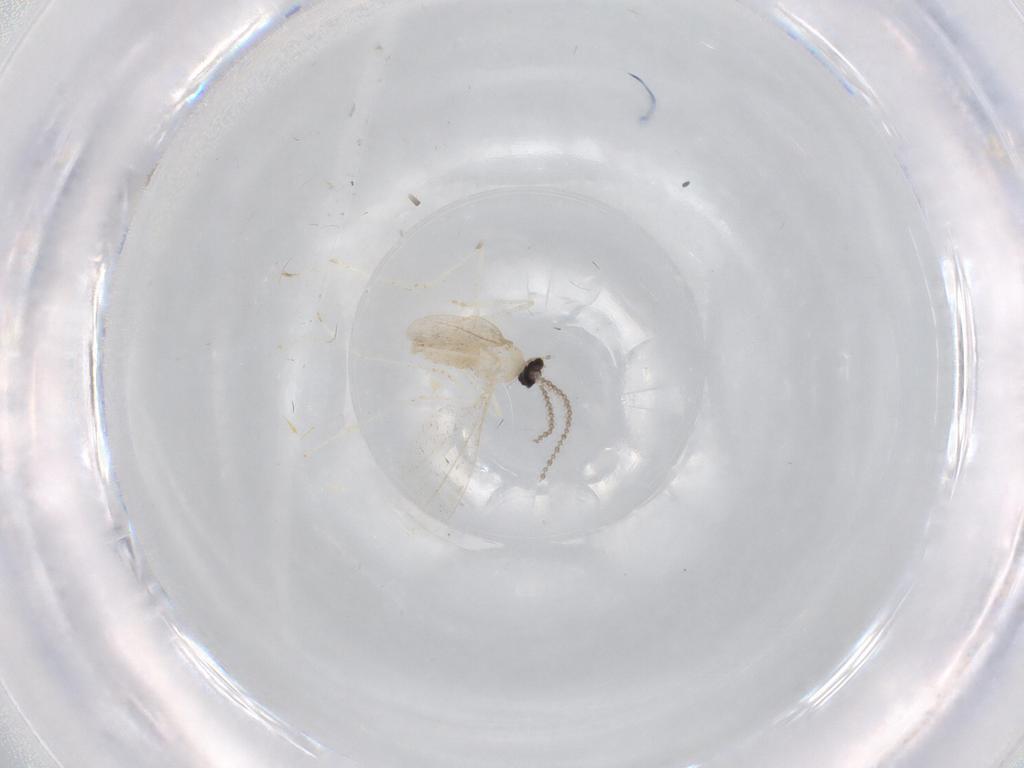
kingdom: Animalia
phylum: Arthropoda
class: Insecta
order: Diptera
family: Cecidomyiidae
